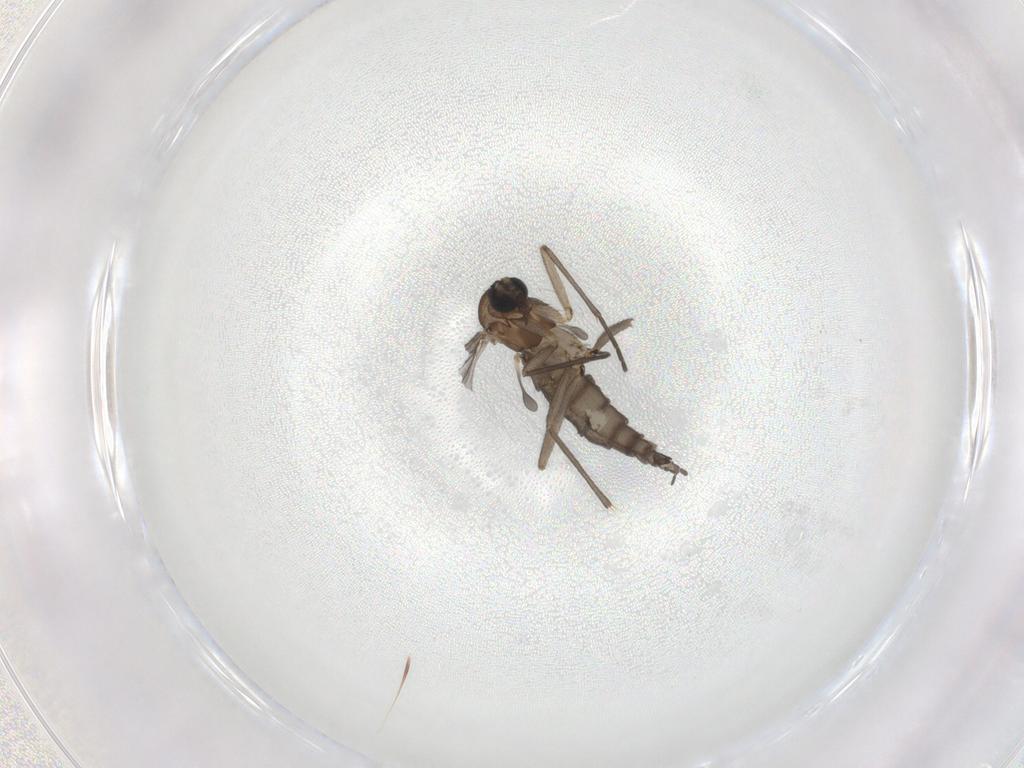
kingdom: Animalia
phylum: Arthropoda
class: Insecta
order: Diptera
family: Sciaridae
